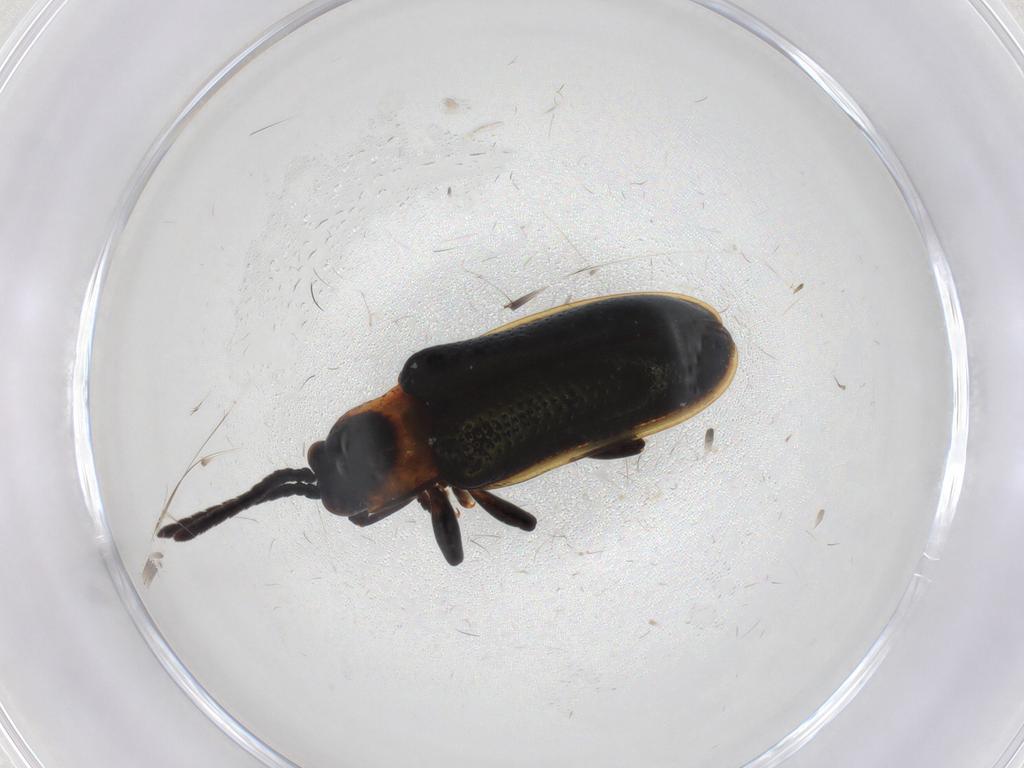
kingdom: Animalia
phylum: Arthropoda
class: Insecta
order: Coleoptera
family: Chrysomelidae
